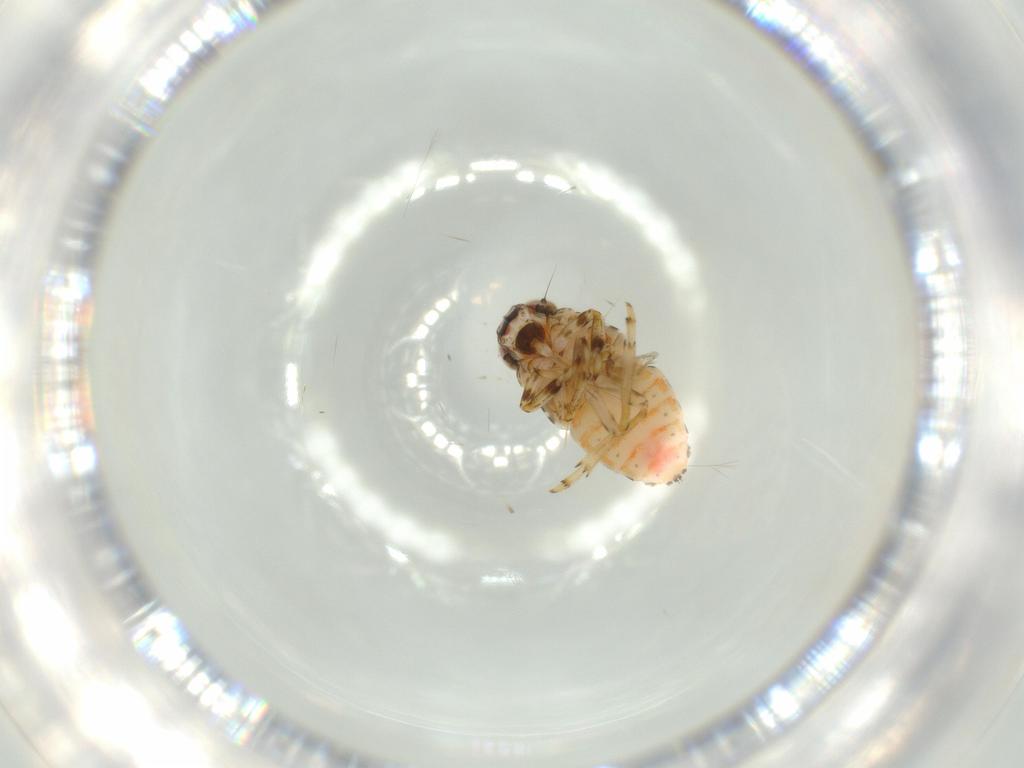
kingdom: Animalia
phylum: Arthropoda
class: Insecta
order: Hemiptera
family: Issidae
